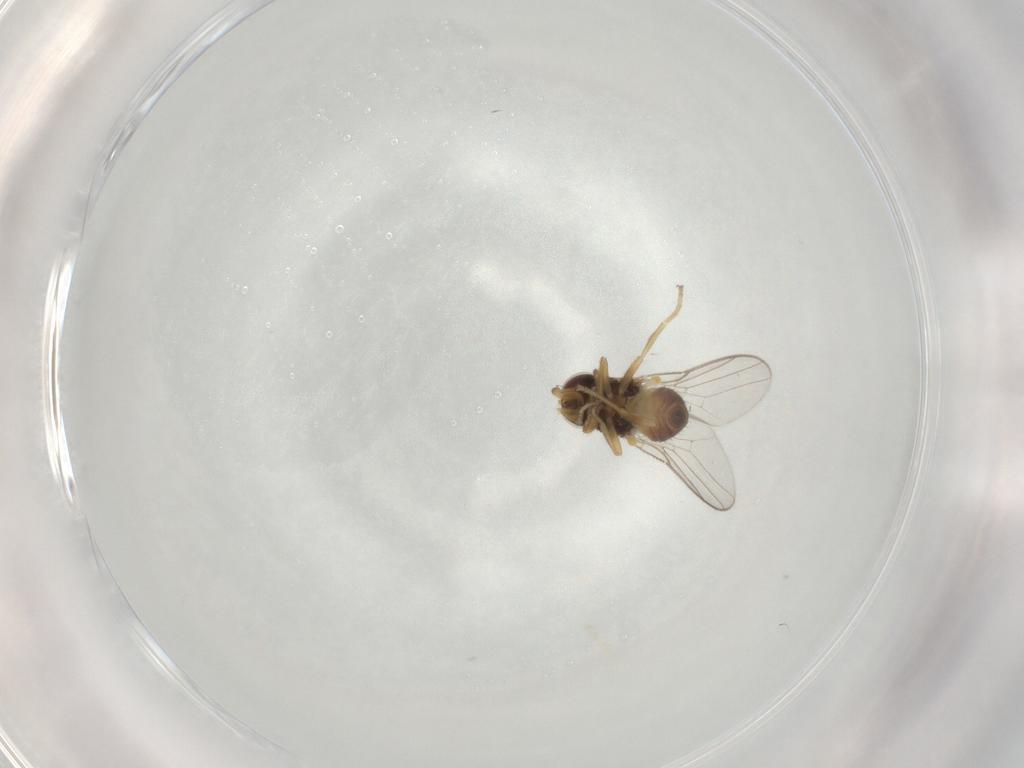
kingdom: Animalia
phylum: Arthropoda
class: Insecta
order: Diptera
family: Chloropidae
